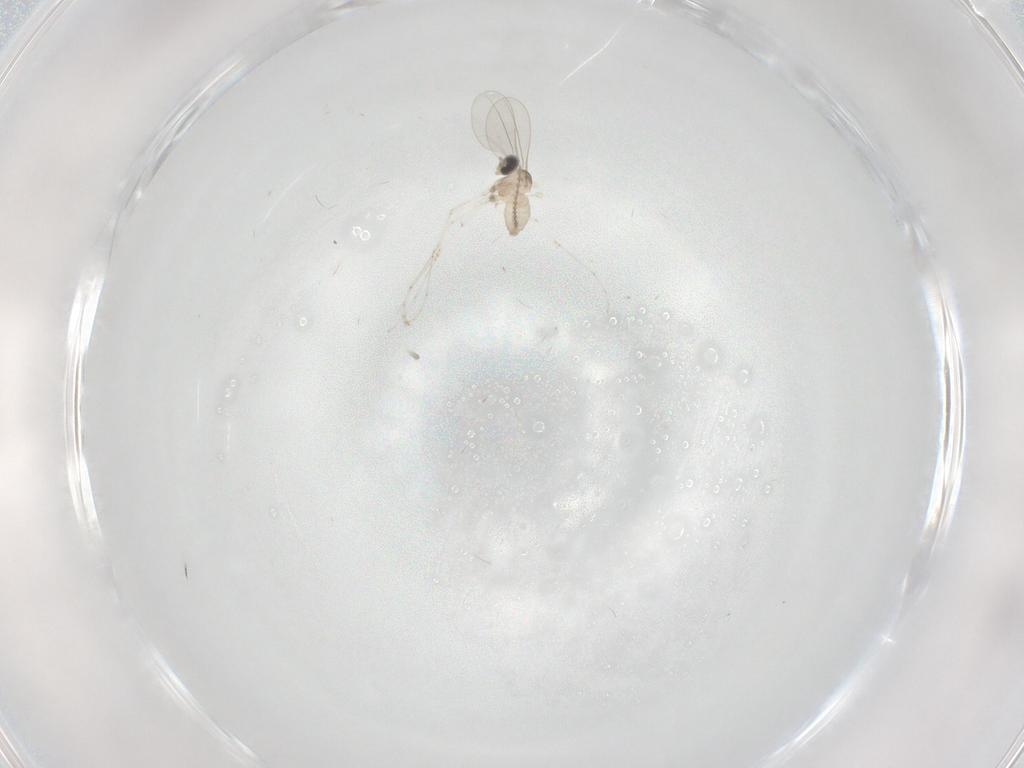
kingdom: Animalia
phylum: Arthropoda
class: Insecta
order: Diptera
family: Cecidomyiidae
